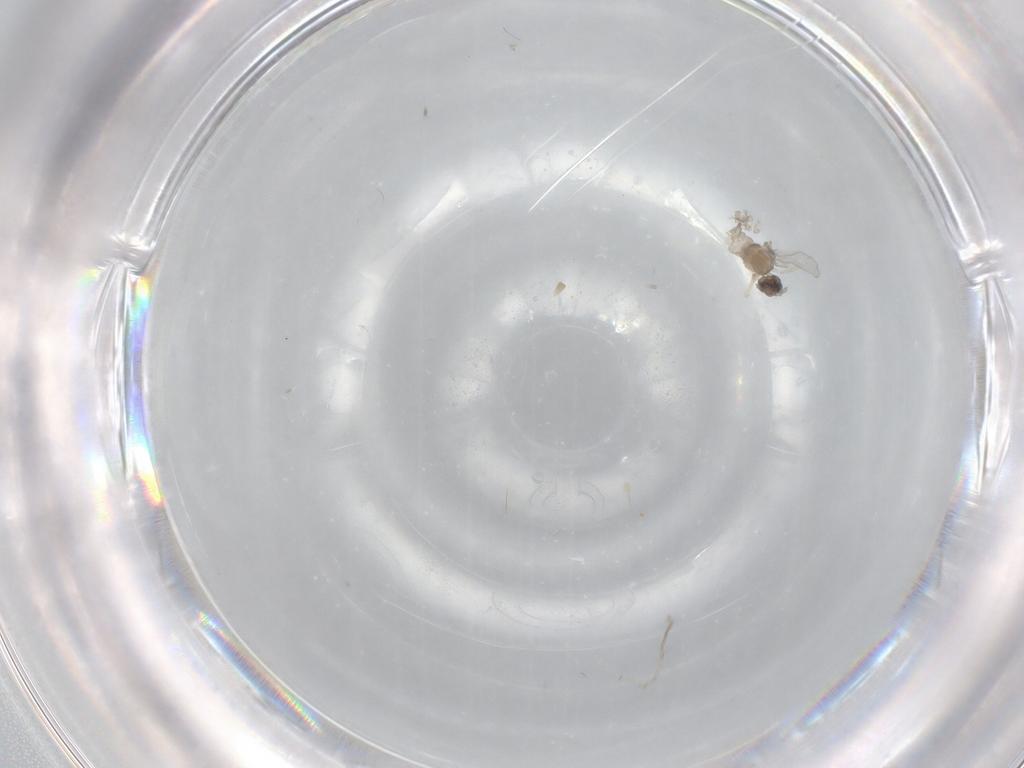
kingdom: Animalia
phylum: Arthropoda
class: Insecta
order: Diptera
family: Cecidomyiidae
